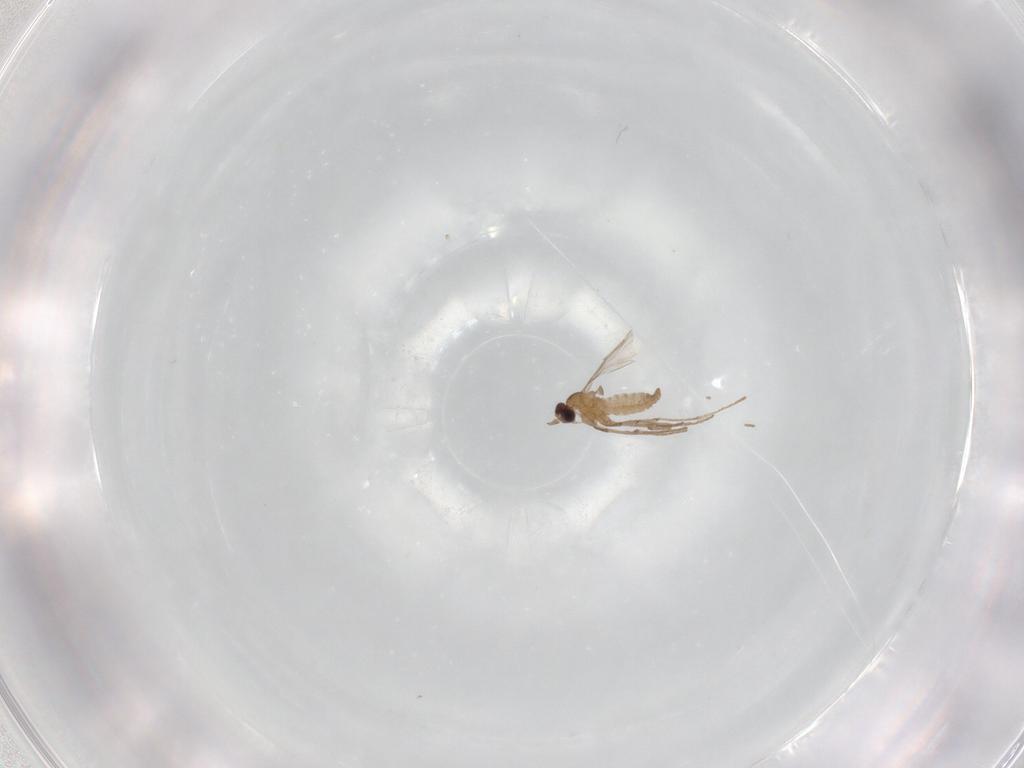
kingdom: Animalia
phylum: Arthropoda
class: Insecta
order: Diptera
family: Cecidomyiidae
